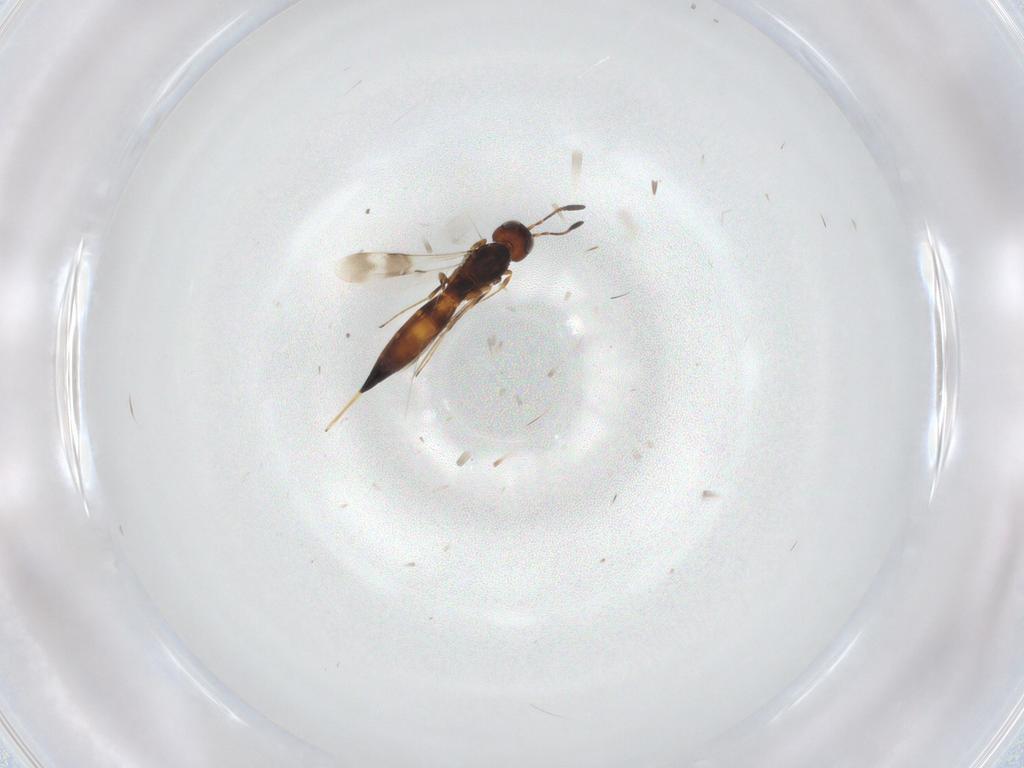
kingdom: Animalia
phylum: Arthropoda
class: Insecta
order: Hymenoptera
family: Scelionidae
